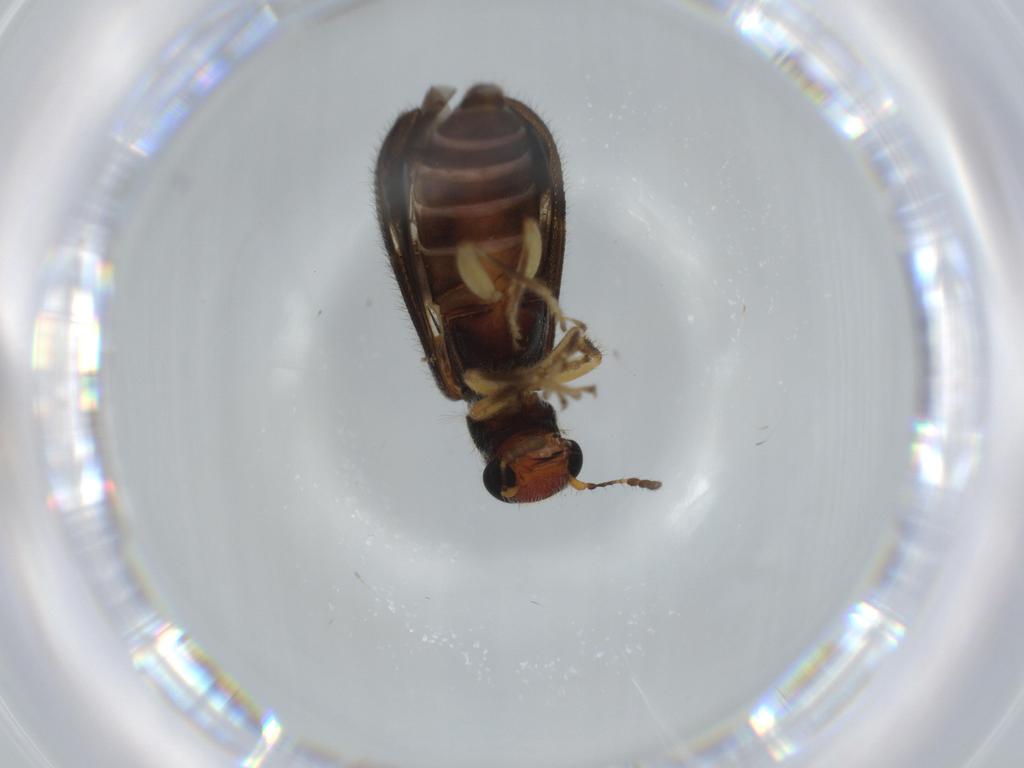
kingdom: Animalia
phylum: Arthropoda
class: Insecta
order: Coleoptera
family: Cleridae
